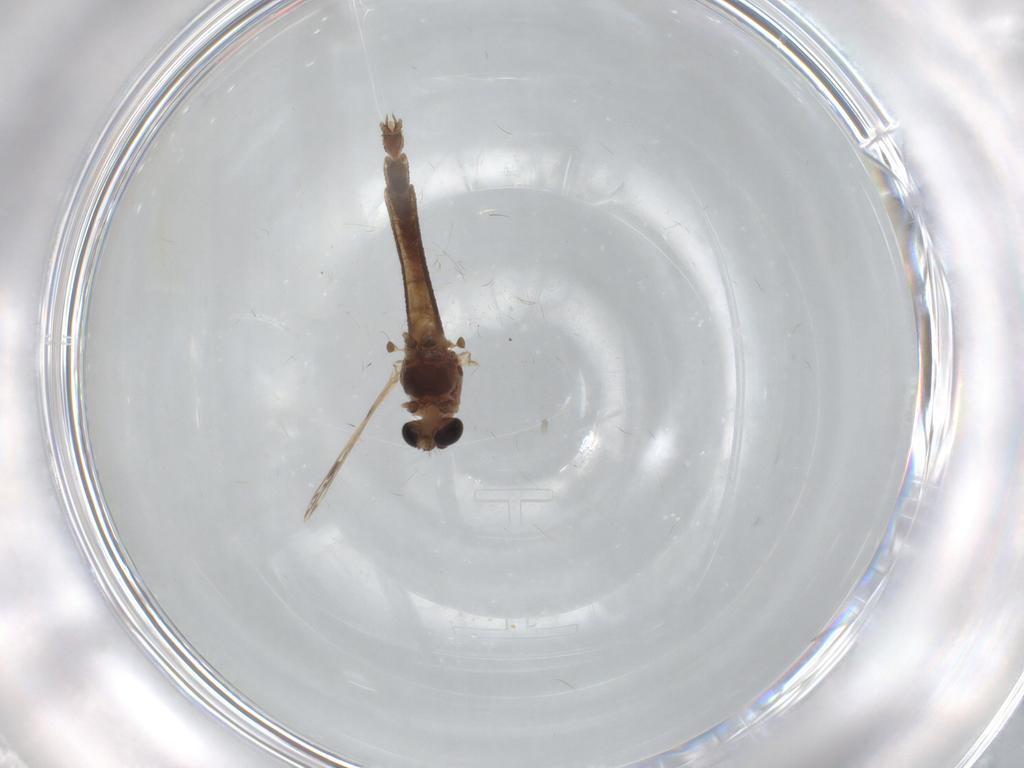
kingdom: Animalia
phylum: Arthropoda
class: Insecta
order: Diptera
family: Chironomidae
